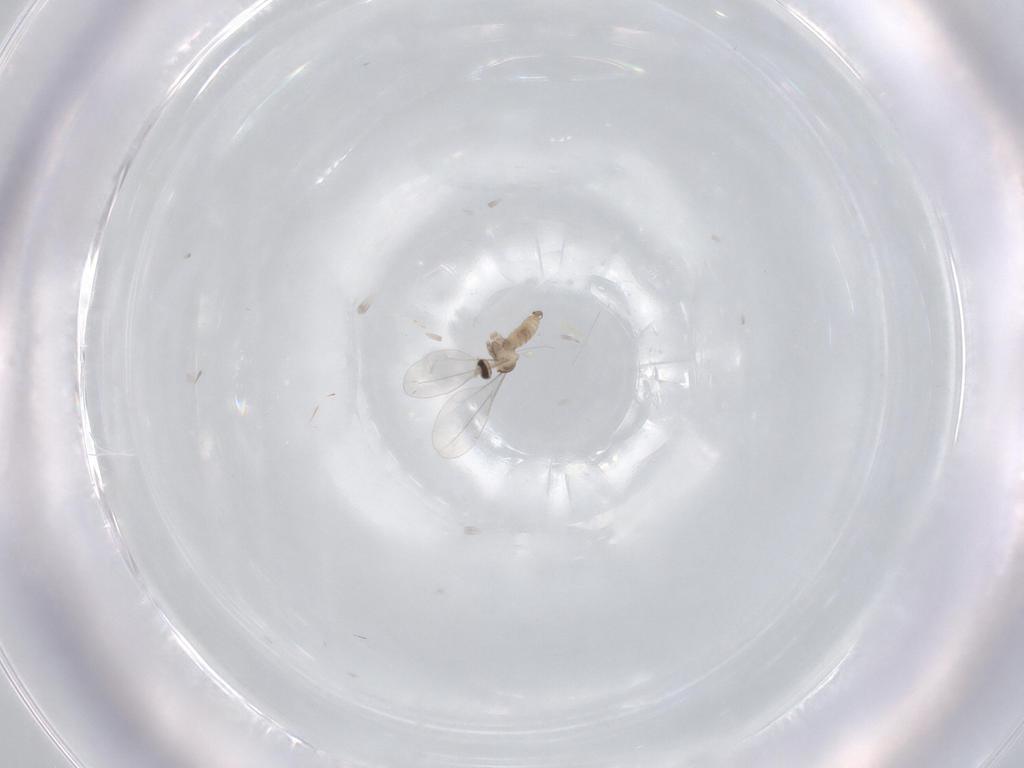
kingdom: Animalia
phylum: Arthropoda
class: Insecta
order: Diptera
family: Cecidomyiidae
